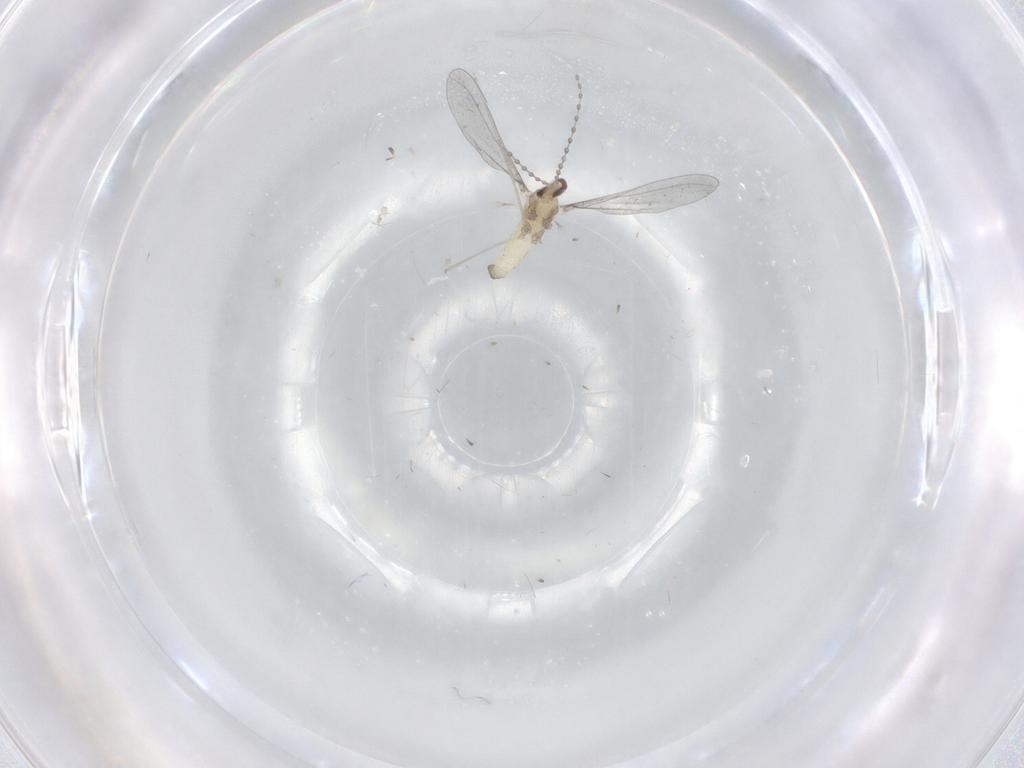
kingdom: Animalia
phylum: Arthropoda
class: Insecta
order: Diptera
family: Cecidomyiidae
